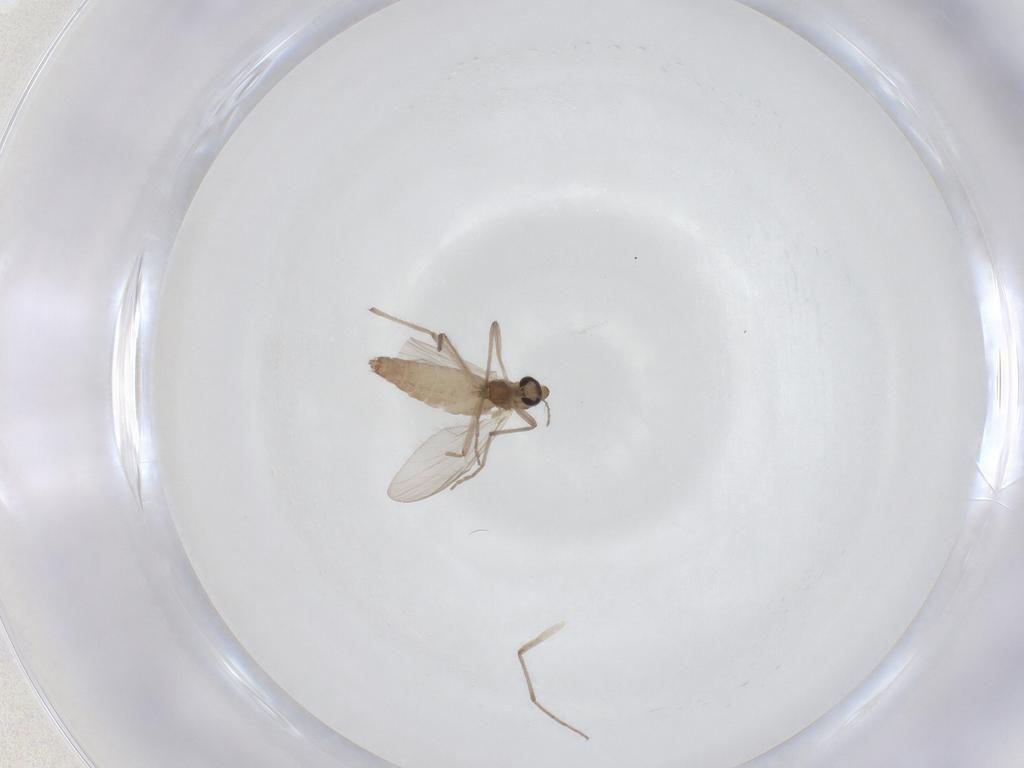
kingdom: Animalia
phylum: Arthropoda
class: Insecta
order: Diptera
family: Chironomidae
